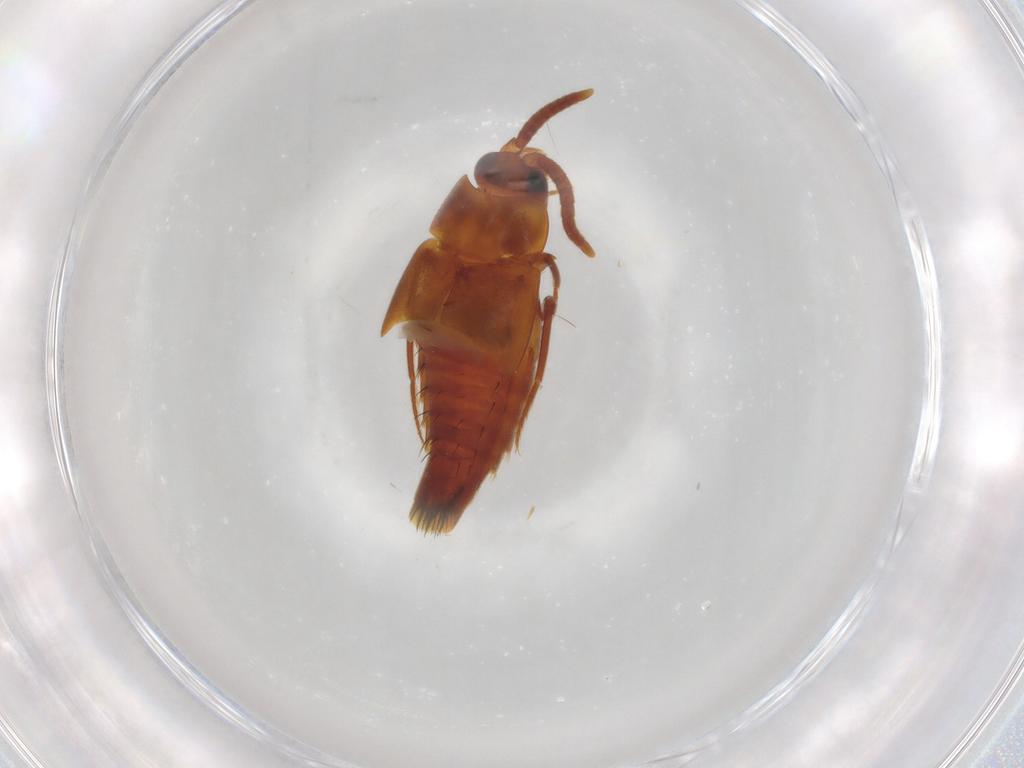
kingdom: Animalia
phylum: Arthropoda
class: Insecta
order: Coleoptera
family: Staphylinidae
